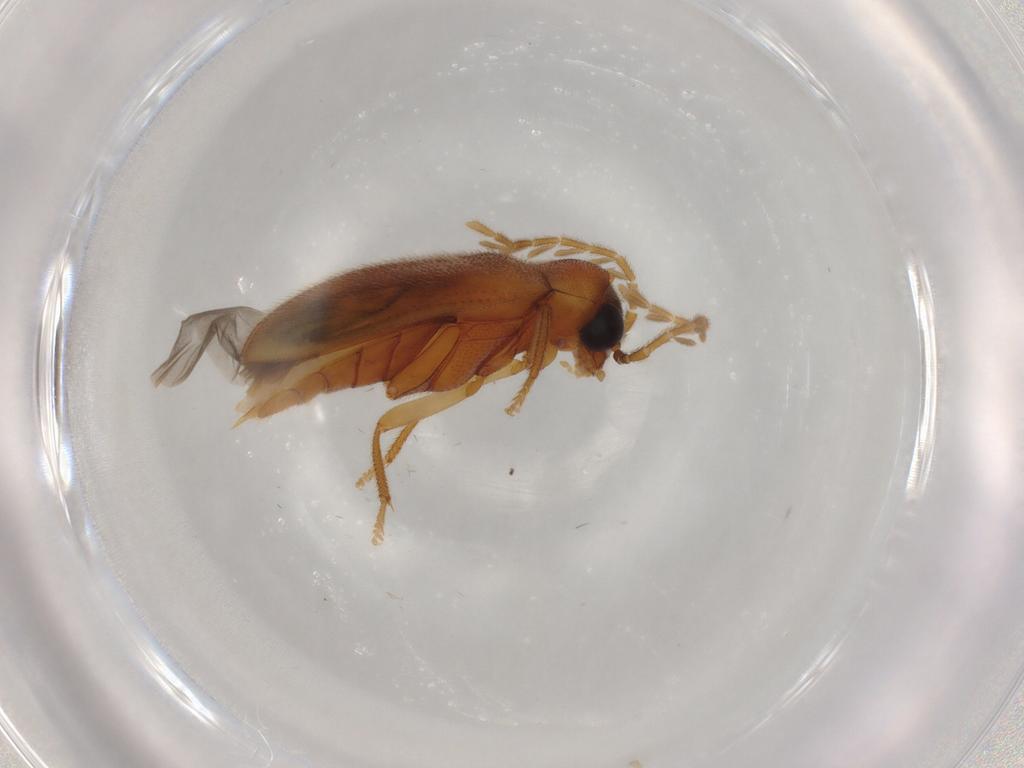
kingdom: Animalia
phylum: Arthropoda
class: Insecta
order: Coleoptera
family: Ptilodactylidae
